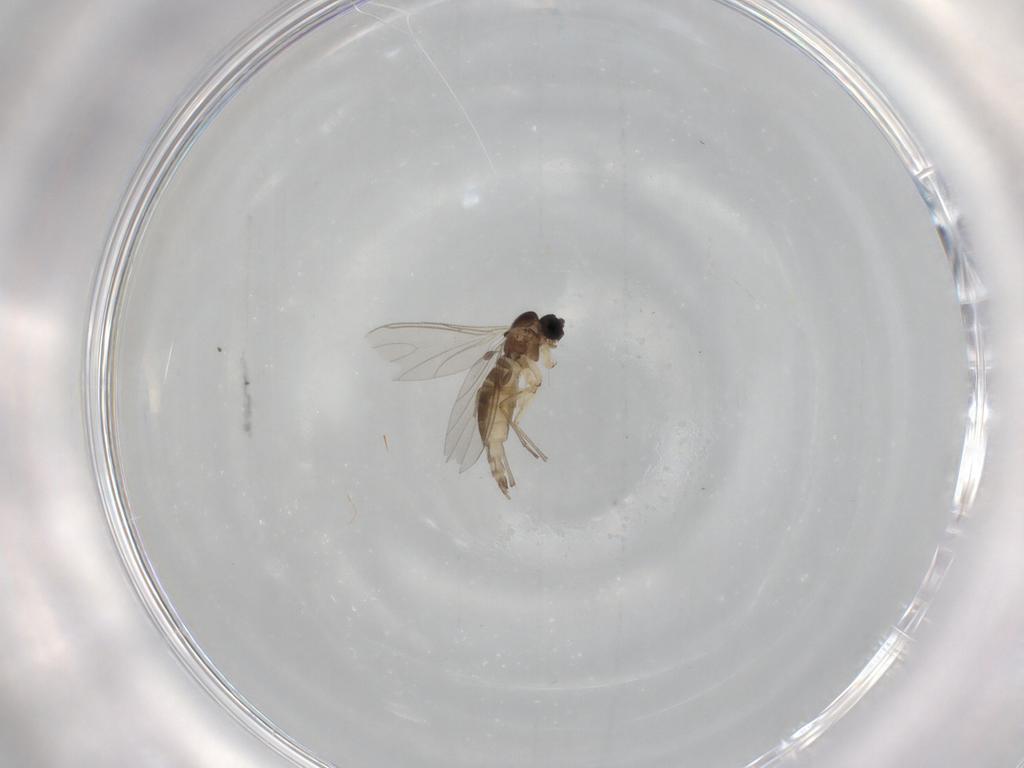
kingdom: Animalia
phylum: Arthropoda
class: Insecta
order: Diptera
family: Sciaridae
